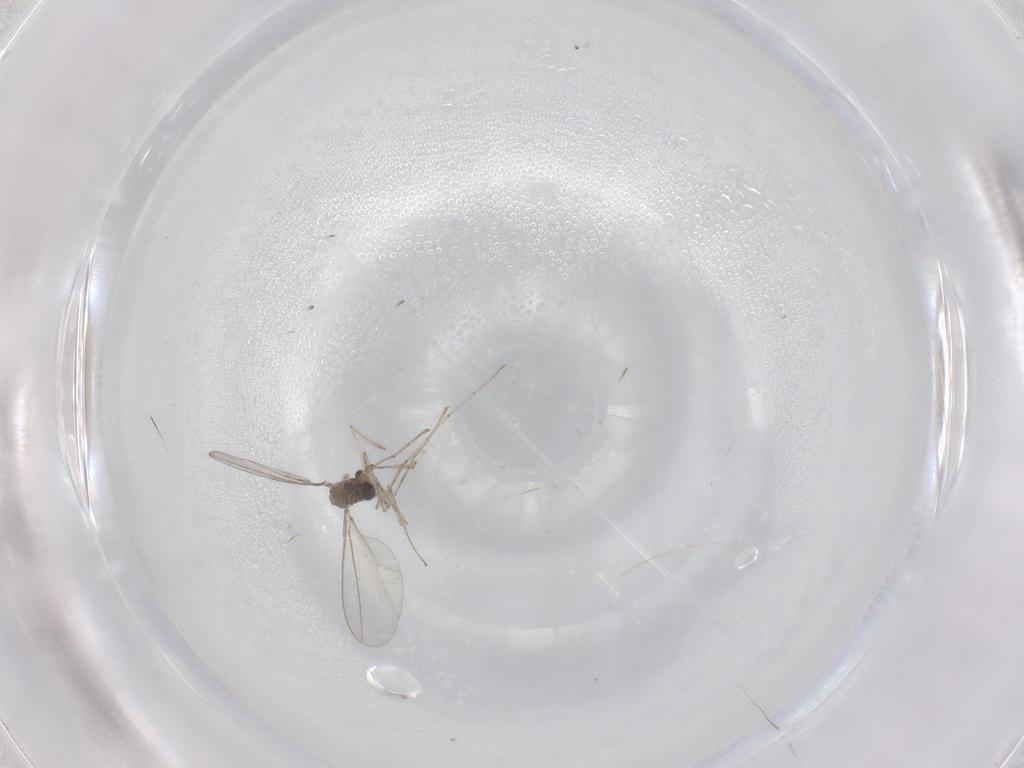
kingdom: Animalia
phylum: Arthropoda
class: Insecta
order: Diptera
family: Cecidomyiidae
